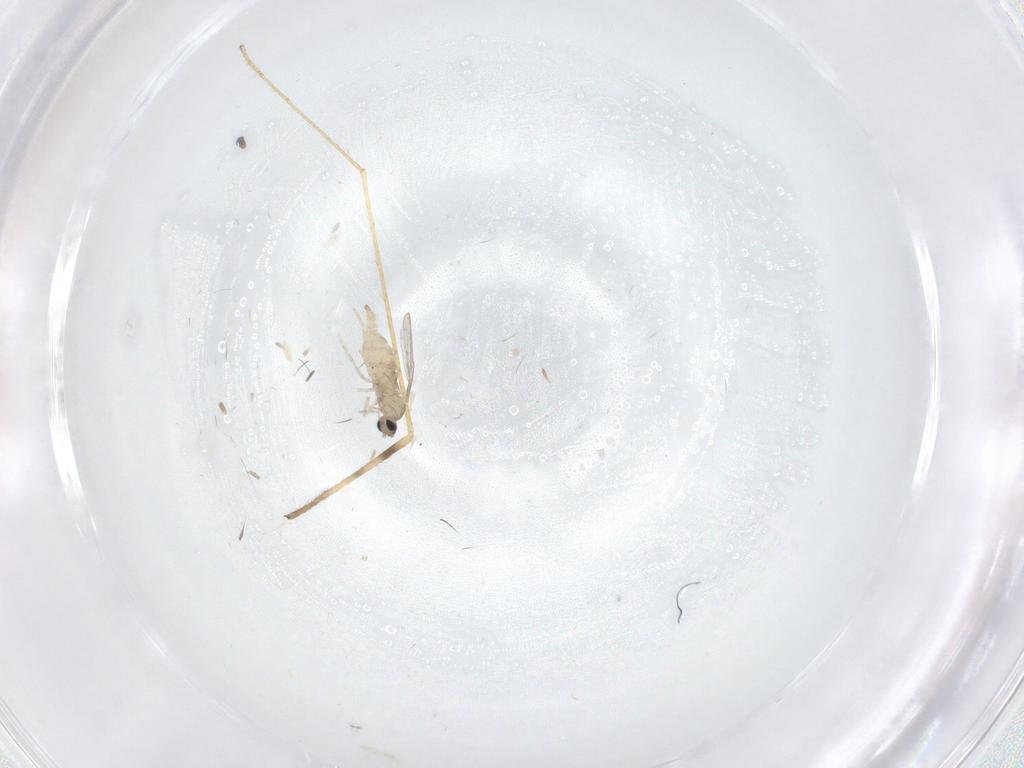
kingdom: Animalia
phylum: Arthropoda
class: Insecta
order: Diptera
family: Cecidomyiidae
